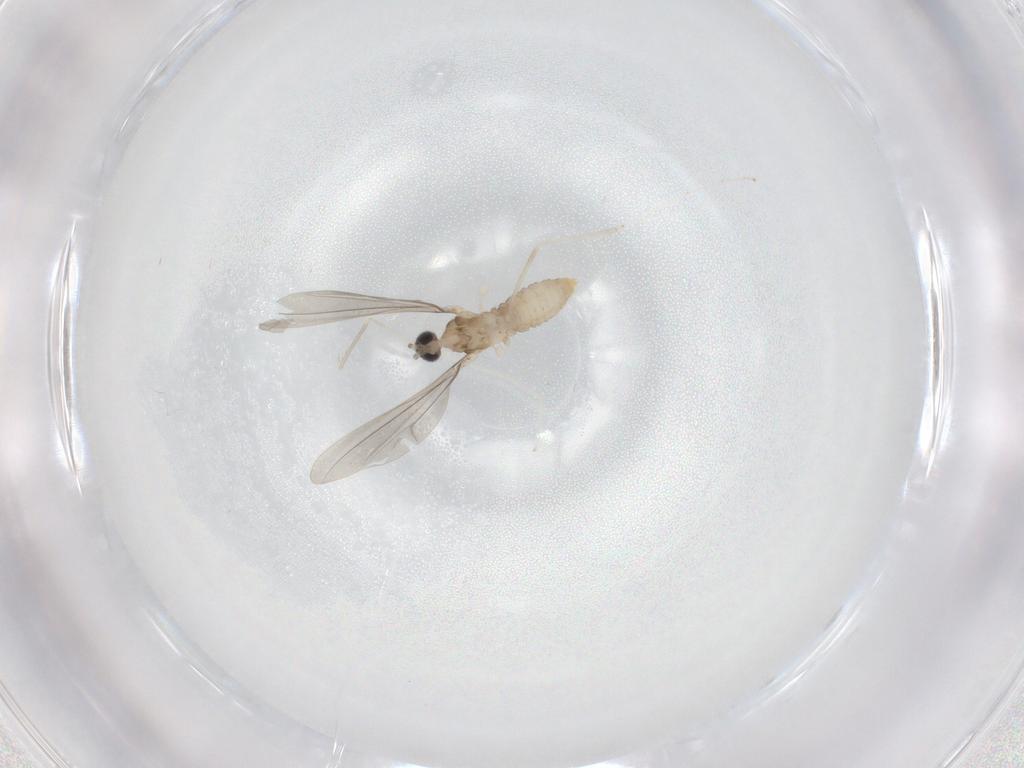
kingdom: Animalia
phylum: Arthropoda
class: Insecta
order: Diptera
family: Cecidomyiidae
